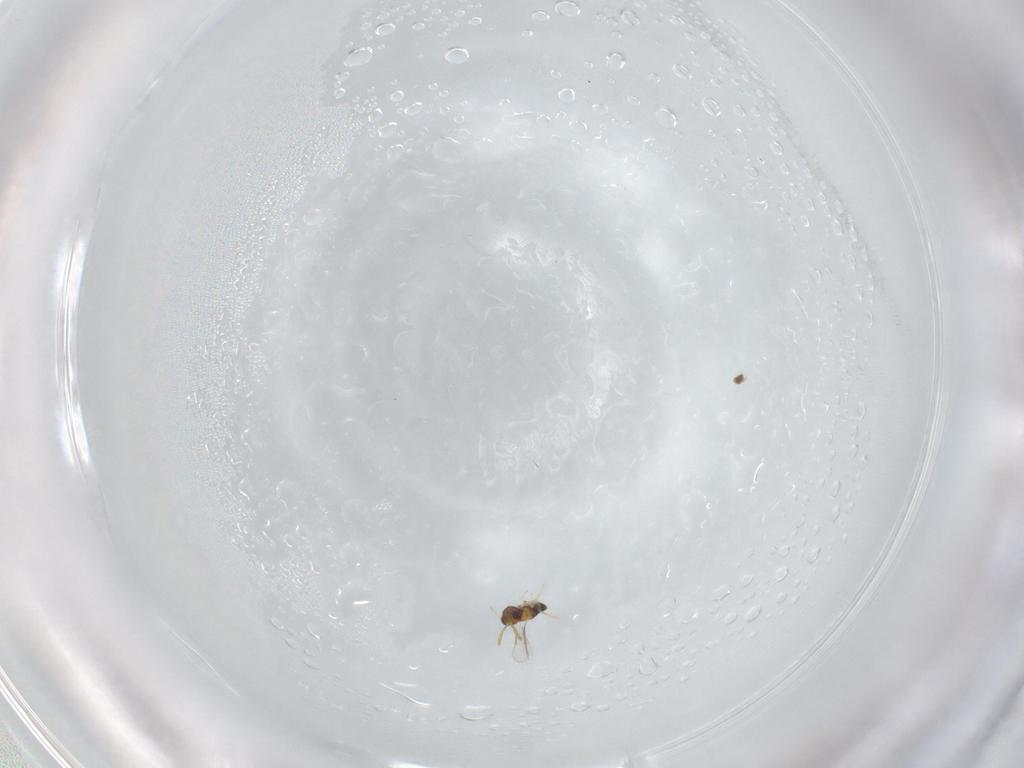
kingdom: Animalia
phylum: Arthropoda
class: Insecta
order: Hymenoptera
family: Aphelinidae
